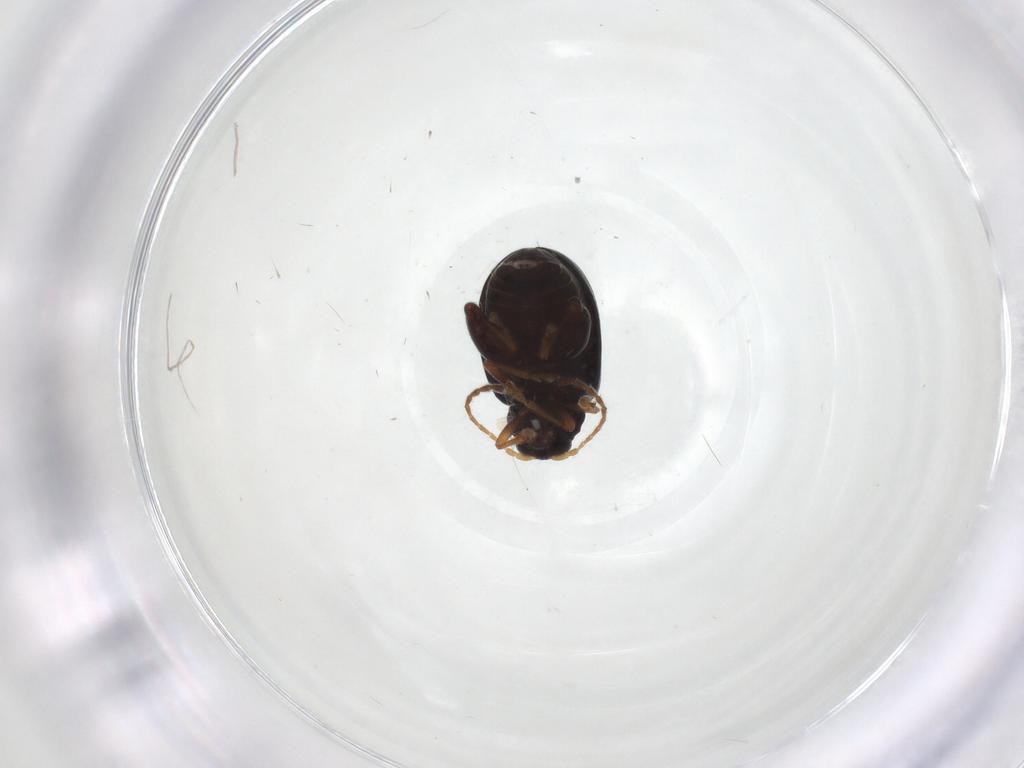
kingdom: Animalia
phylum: Arthropoda
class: Insecta
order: Coleoptera
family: Chrysomelidae
